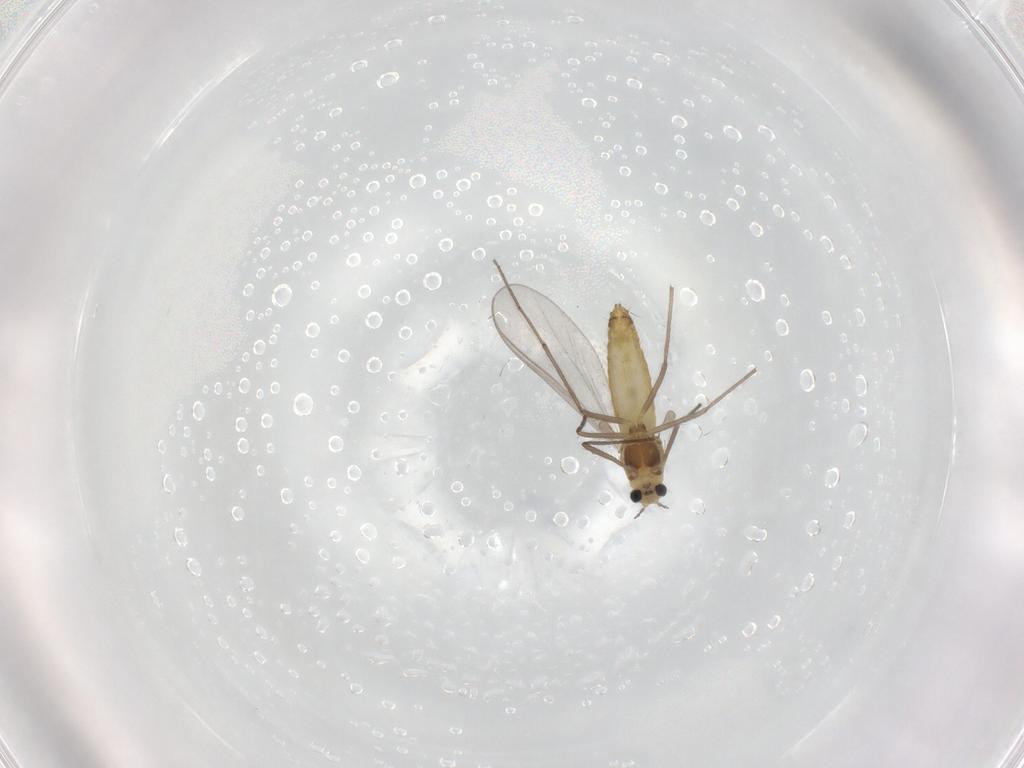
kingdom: Animalia
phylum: Arthropoda
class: Insecta
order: Diptera
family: Chironomidae
